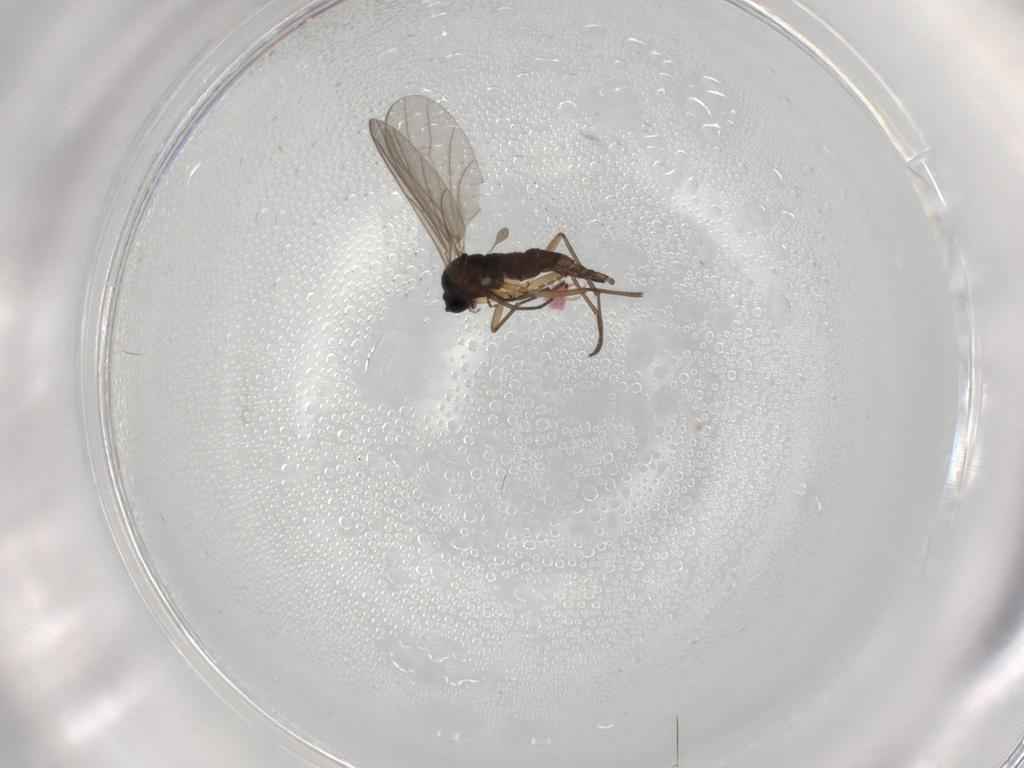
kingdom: Animalia
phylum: Arthropoda
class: Insecta
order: Diptera
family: Sciaridae
